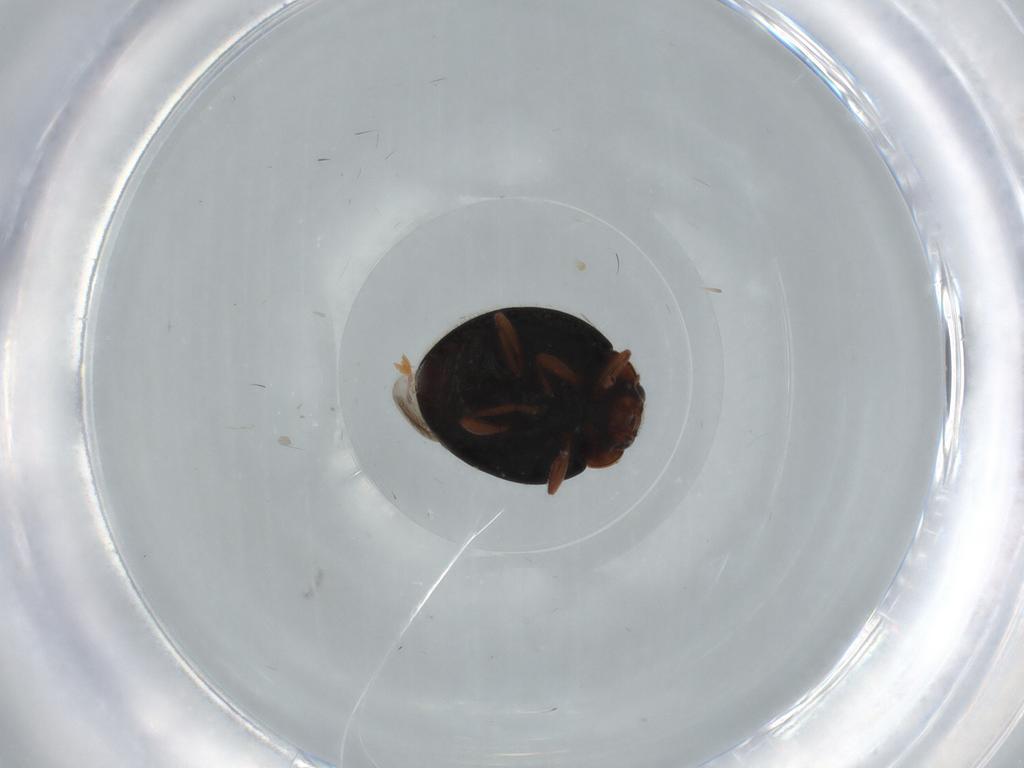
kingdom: Animalia
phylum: Arthropoda
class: Insecta
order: Coleoptera
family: Coccinellidae
